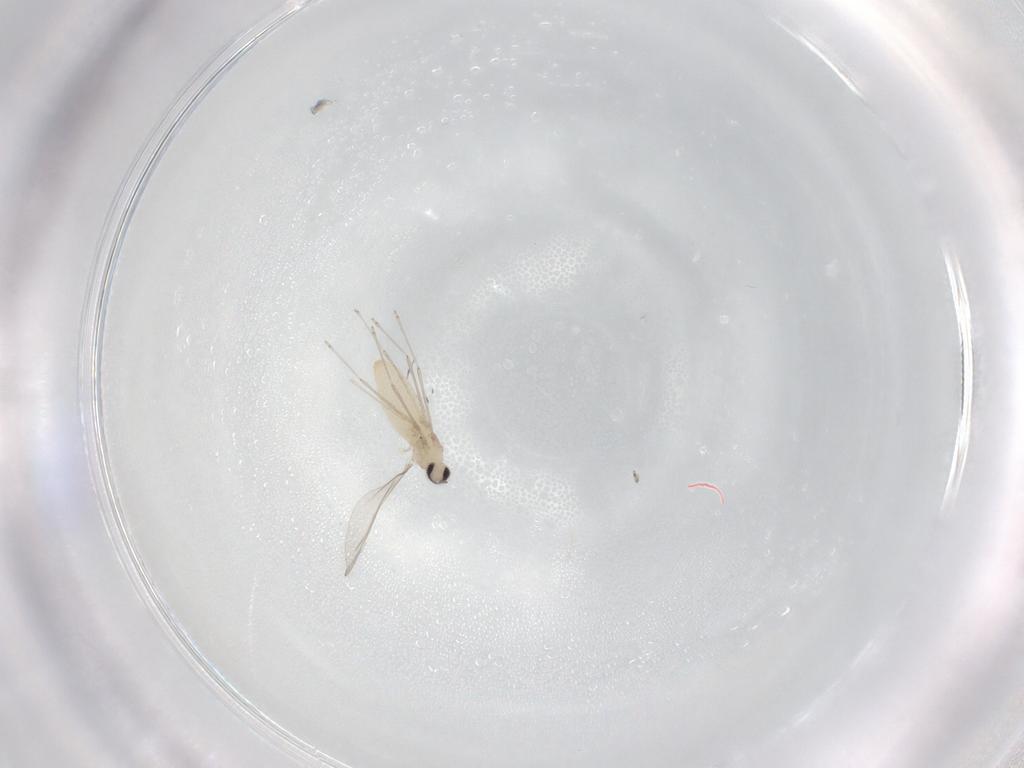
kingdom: Animalia
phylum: Arthropoda
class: Insecta
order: Diptera
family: Cecidomyiidae
